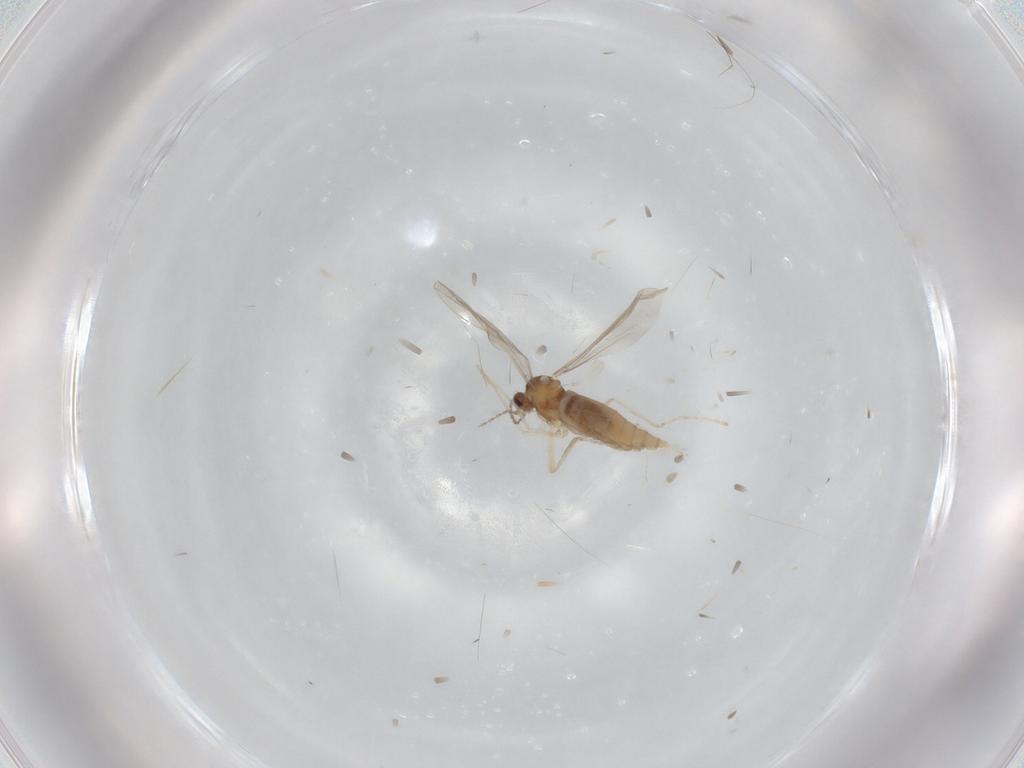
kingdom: Animalia
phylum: Arthropoda
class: Insecta
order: Diptera
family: Cecidomyiidae
